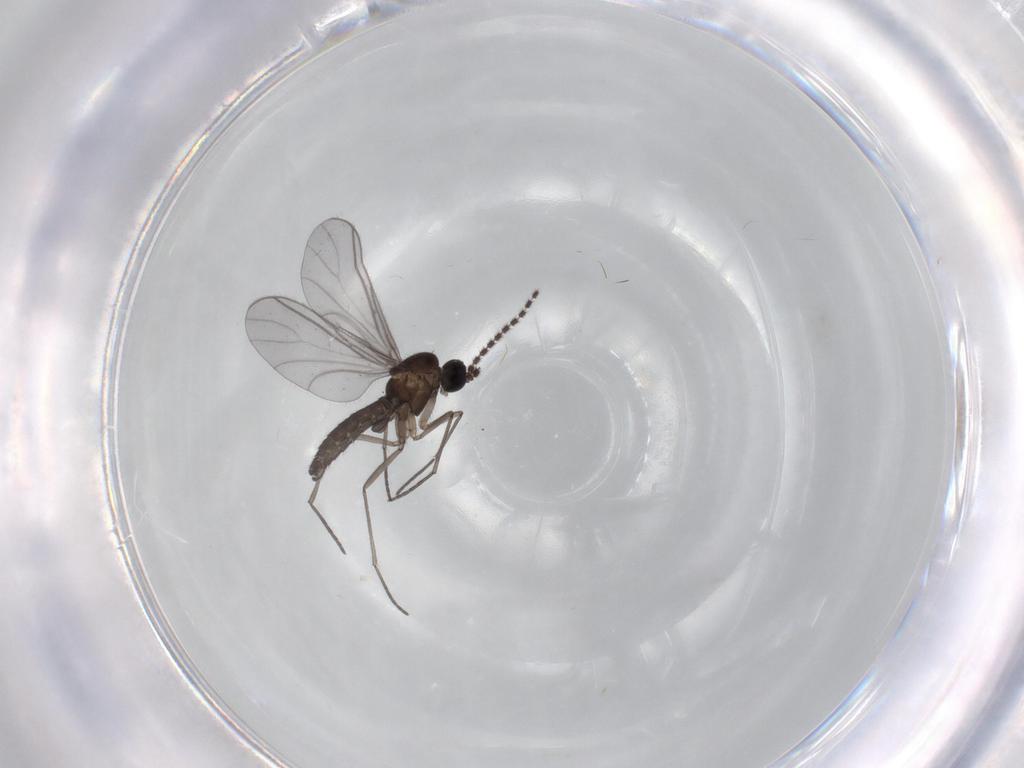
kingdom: Animalia
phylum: Arthropoda
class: Insecta
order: Diptera
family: Sciaridae
